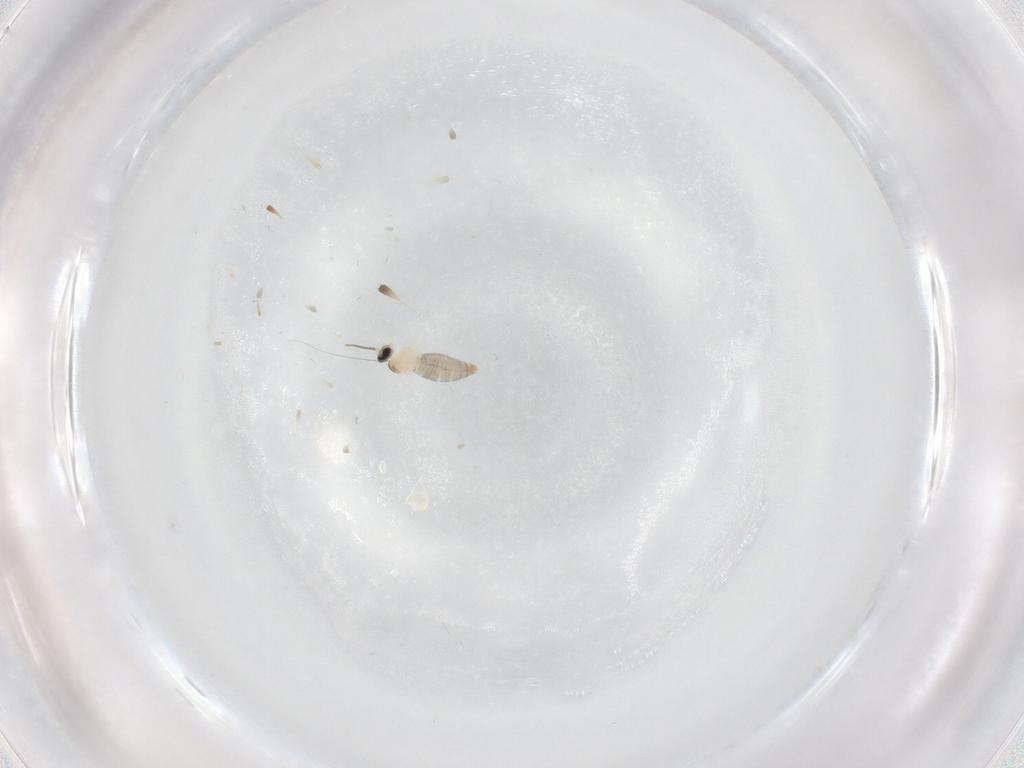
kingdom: Animalia
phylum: Arthropoda
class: Insecta
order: Diptera
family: Cecidomyiidae
